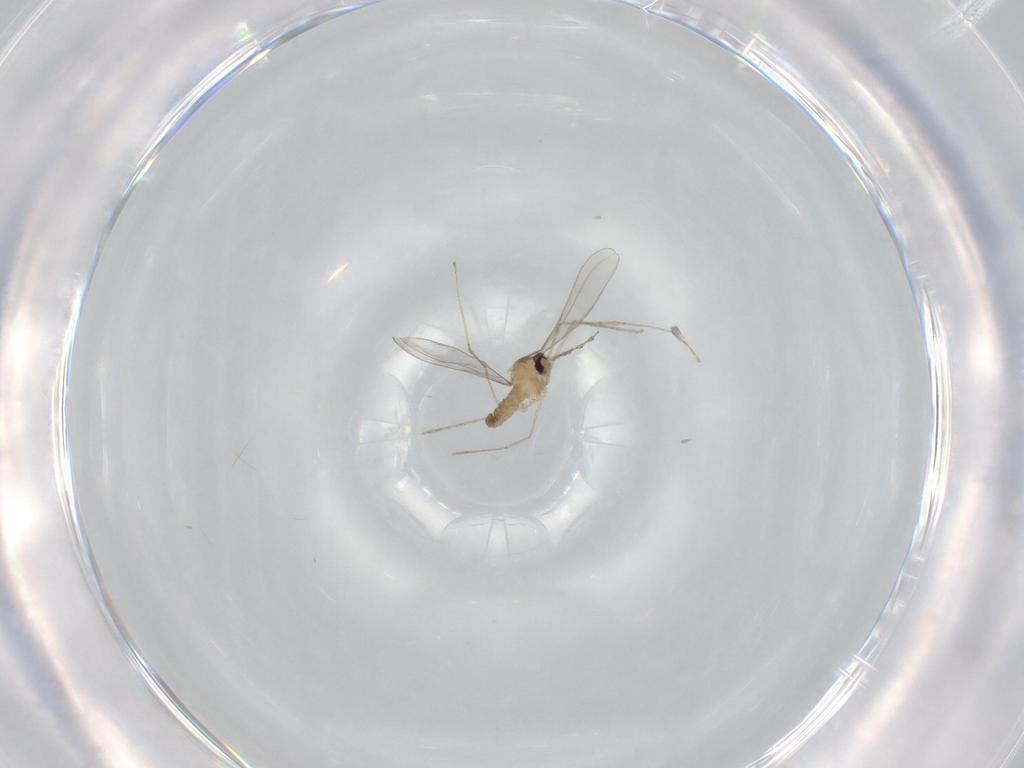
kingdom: Animalia
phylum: Arthropoda
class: Insecta
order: Diptera
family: Cecidomyiidae
